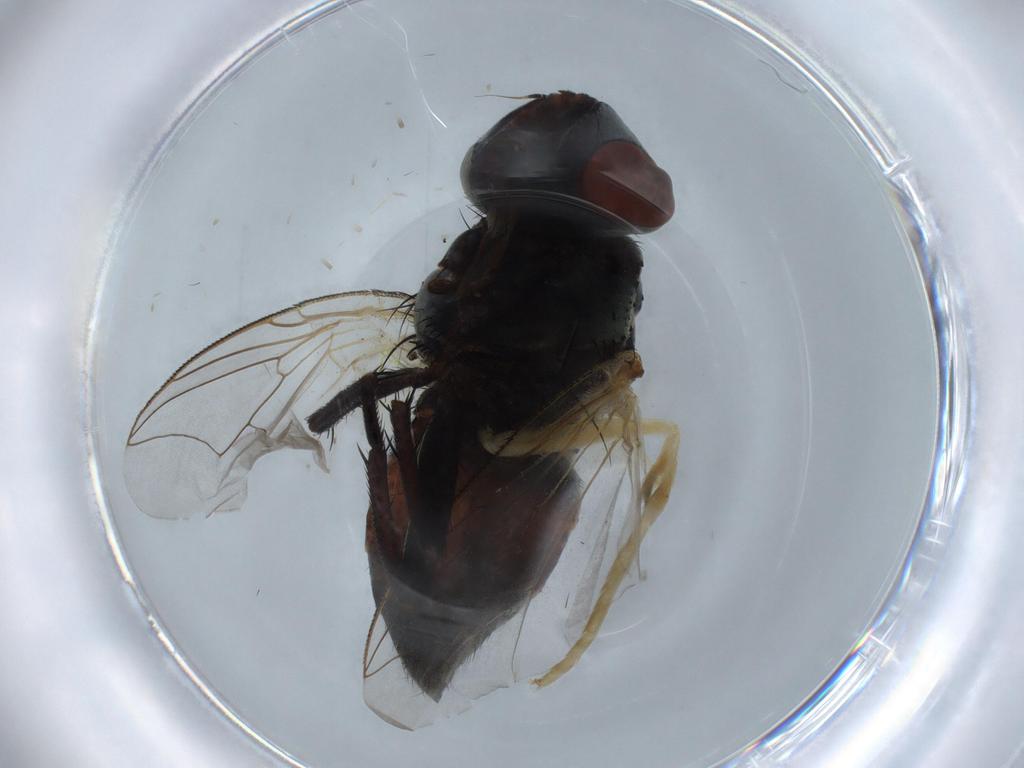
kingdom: Animalia
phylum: Arthropoda
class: Insecta
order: Diptera
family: Sarcophagidae
